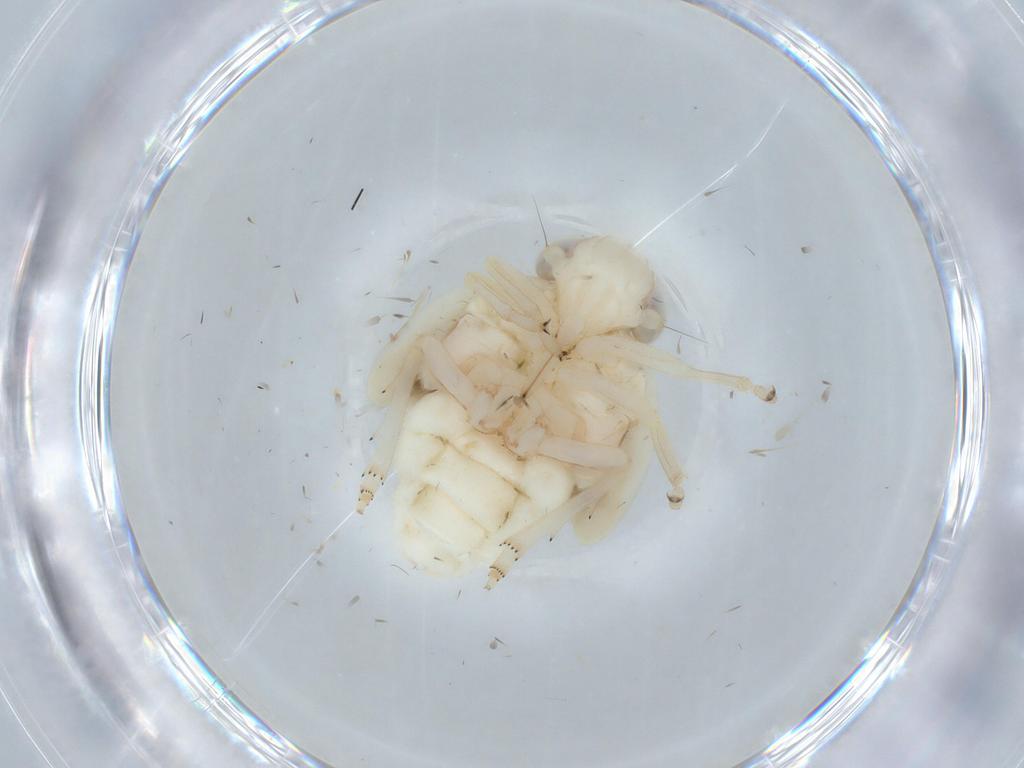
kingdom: Animalia
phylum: Arthropoda
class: Insecta
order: Hemiptera
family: Nogodinidae
